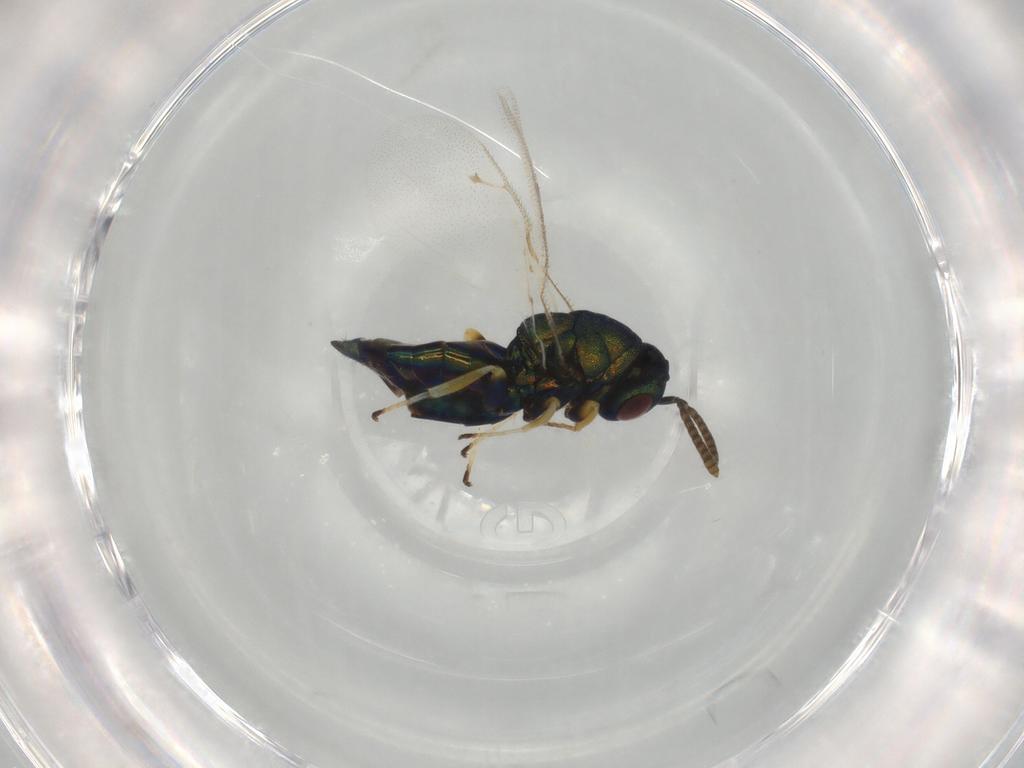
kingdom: Animalia
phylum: Arthropoda
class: Insecta
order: Hymenoptera
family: Pteromalidae
